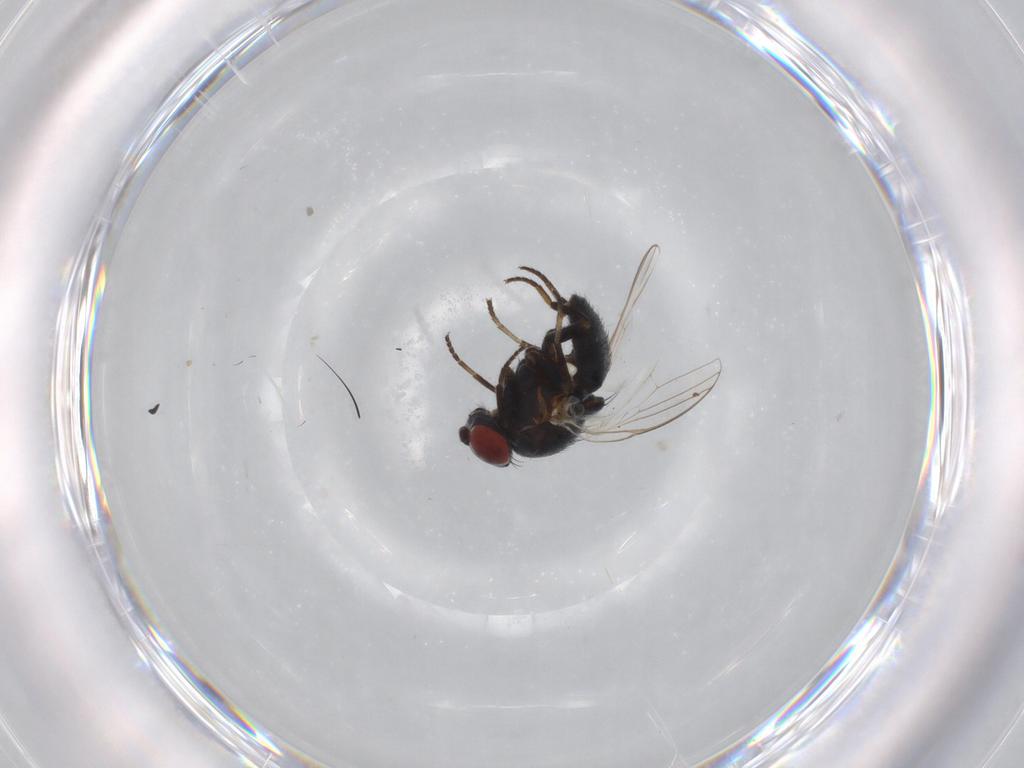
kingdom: Animalia
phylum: Arthropoda
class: Insecta
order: Diptera
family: Chamaemyiidae
